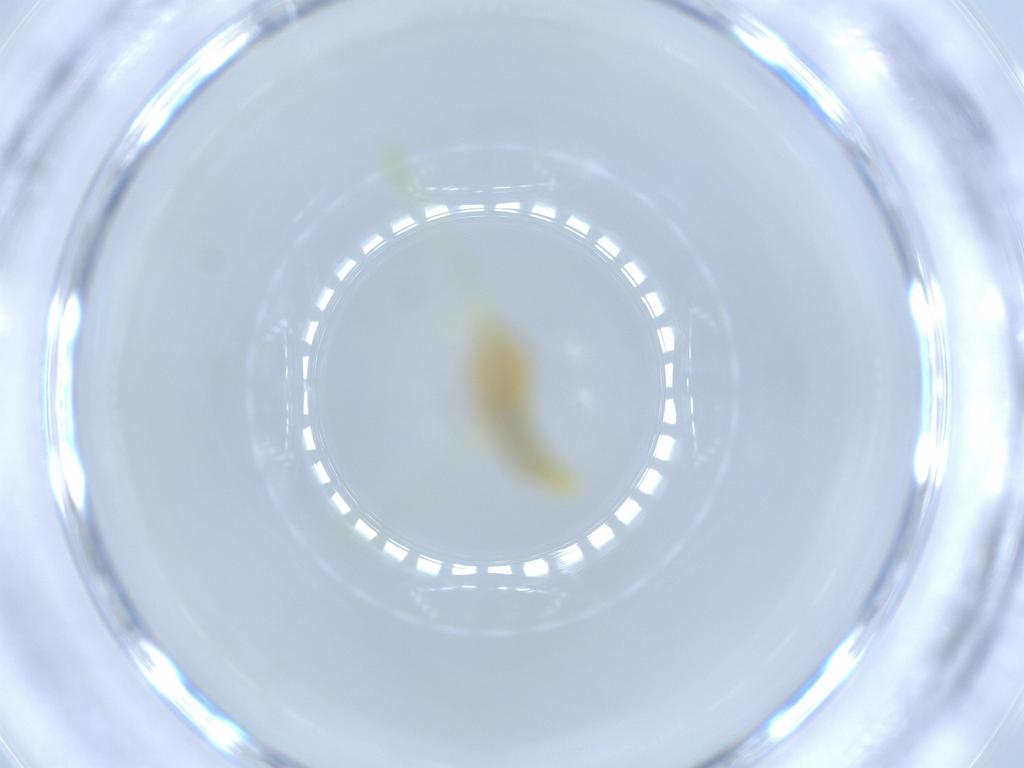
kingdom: Animalia
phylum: Arthropoda
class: Insecta
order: Hemiptera
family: Cicadellidae
